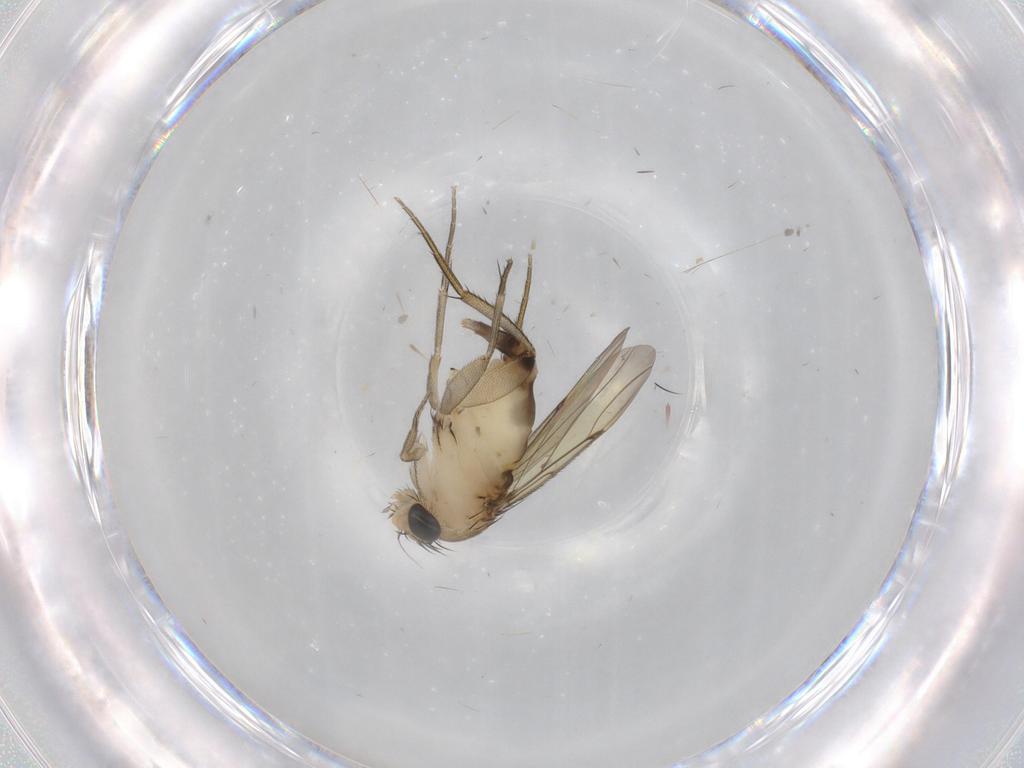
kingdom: Animalia
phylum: Arthropoda
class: Insecta
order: Diptera
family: Phoridae
